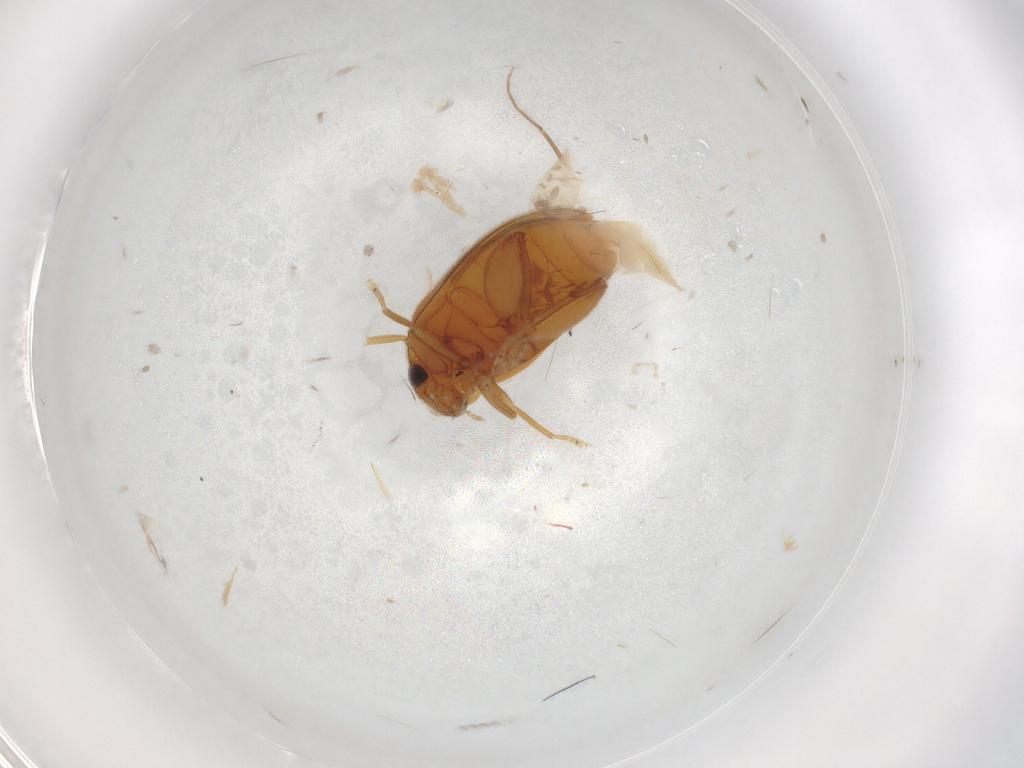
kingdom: Animalia
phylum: Arthropoda
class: Insecta
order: Coleoptera
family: Scirtidae
